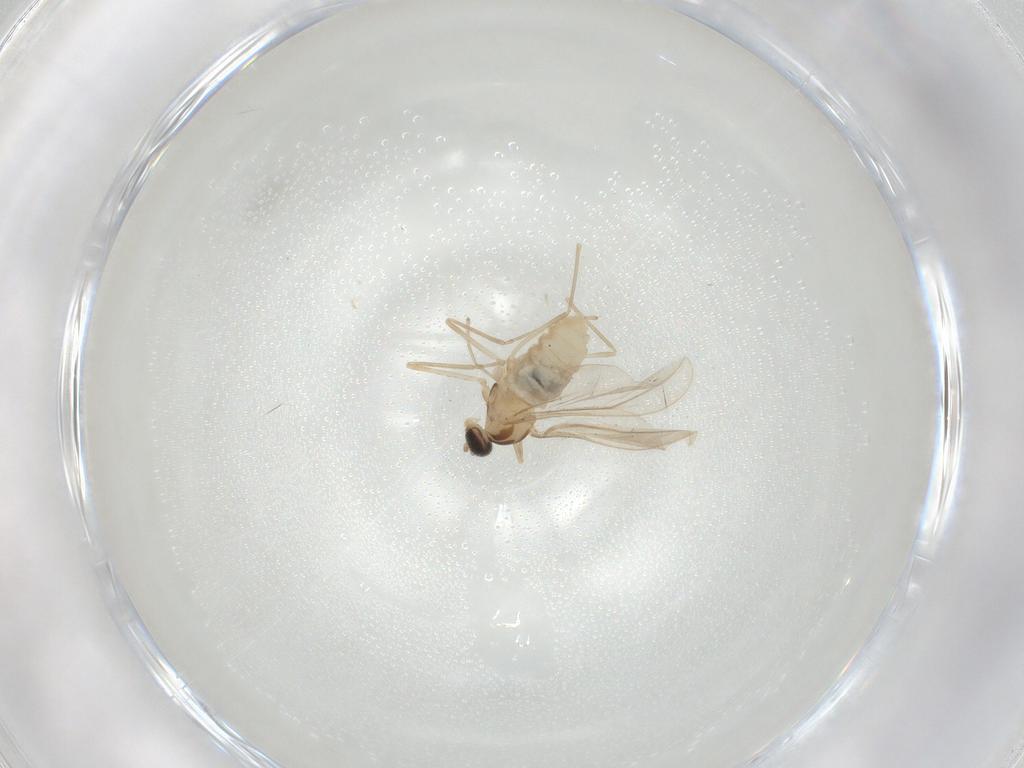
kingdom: Animalia
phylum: Arthropoda
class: Insecta
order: Diptera
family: Cecidomyiidae
